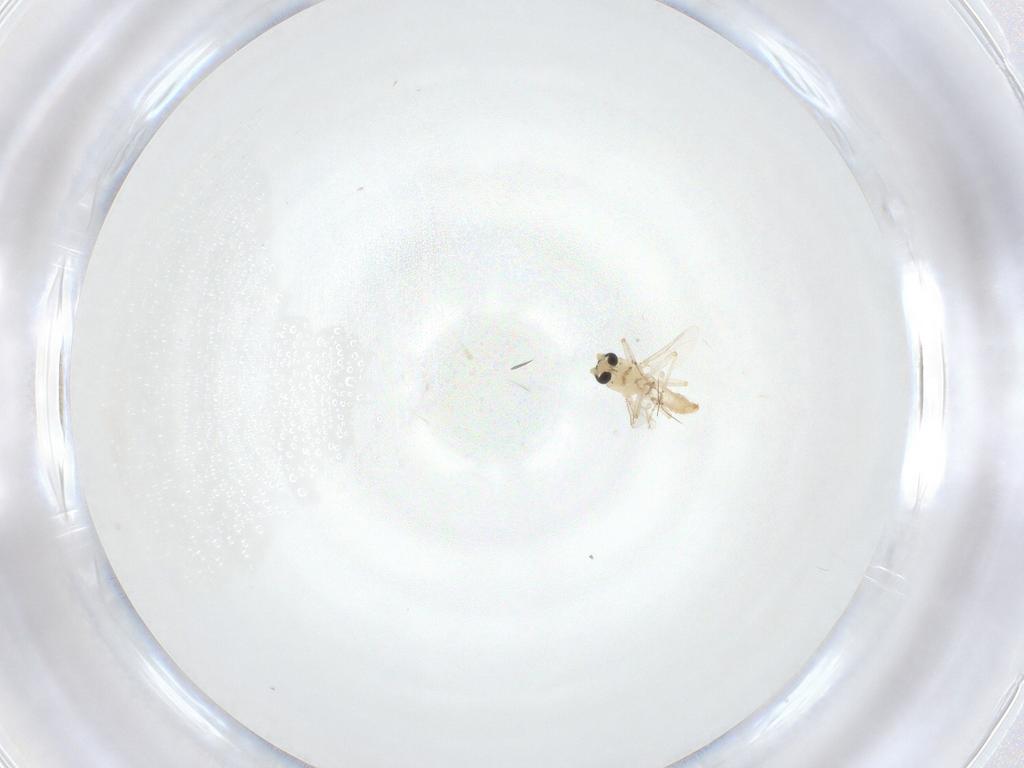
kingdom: Animalia
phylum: Arthropoda
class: Insecta
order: Diptera
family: Ceratopogonidae
